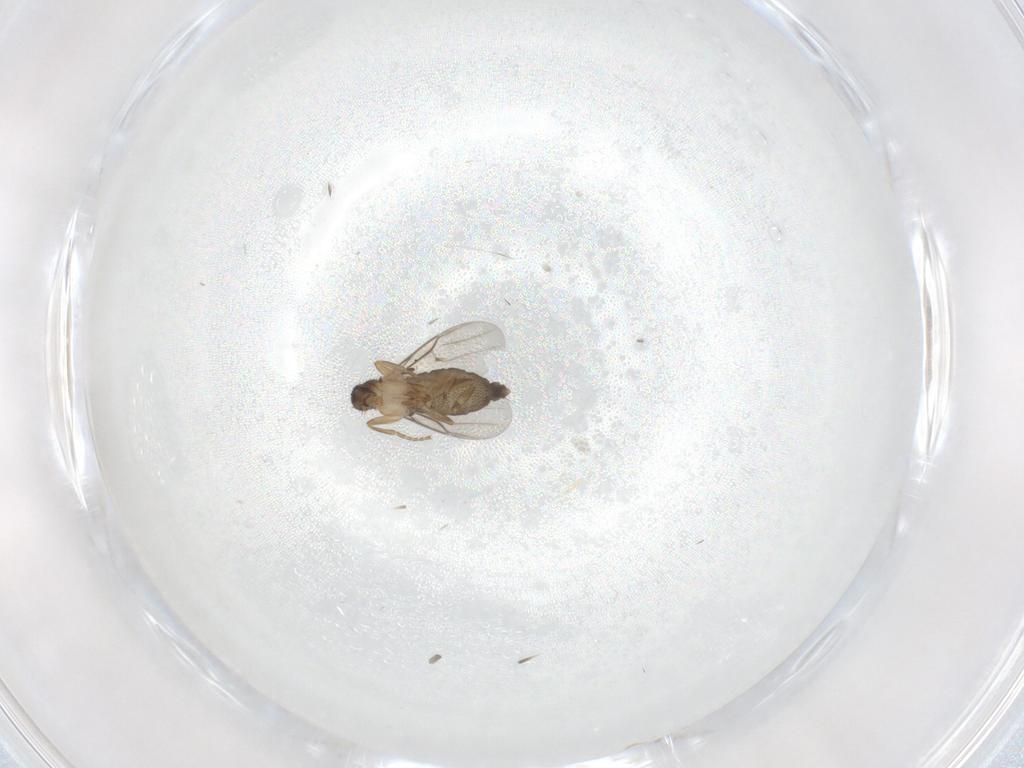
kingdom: Animalia
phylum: Arthropoda
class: Insecta
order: Diptera
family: Phoridae
